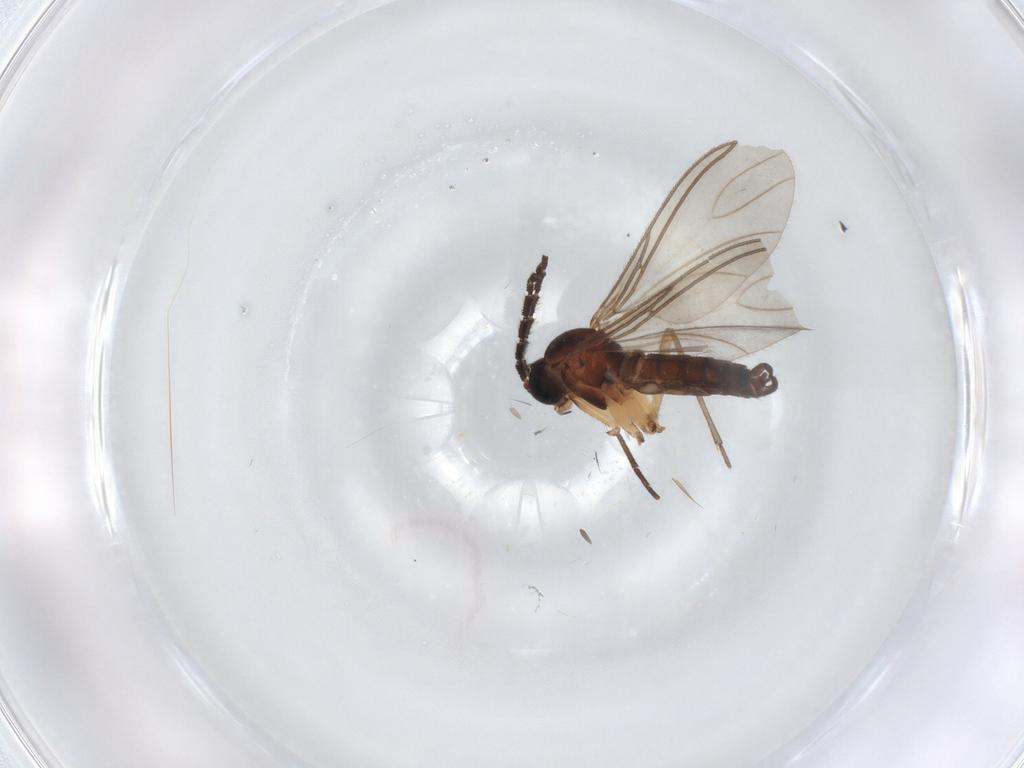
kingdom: Animalia
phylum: Arthropoda
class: Insecta
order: Diptera
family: Sciaridae
